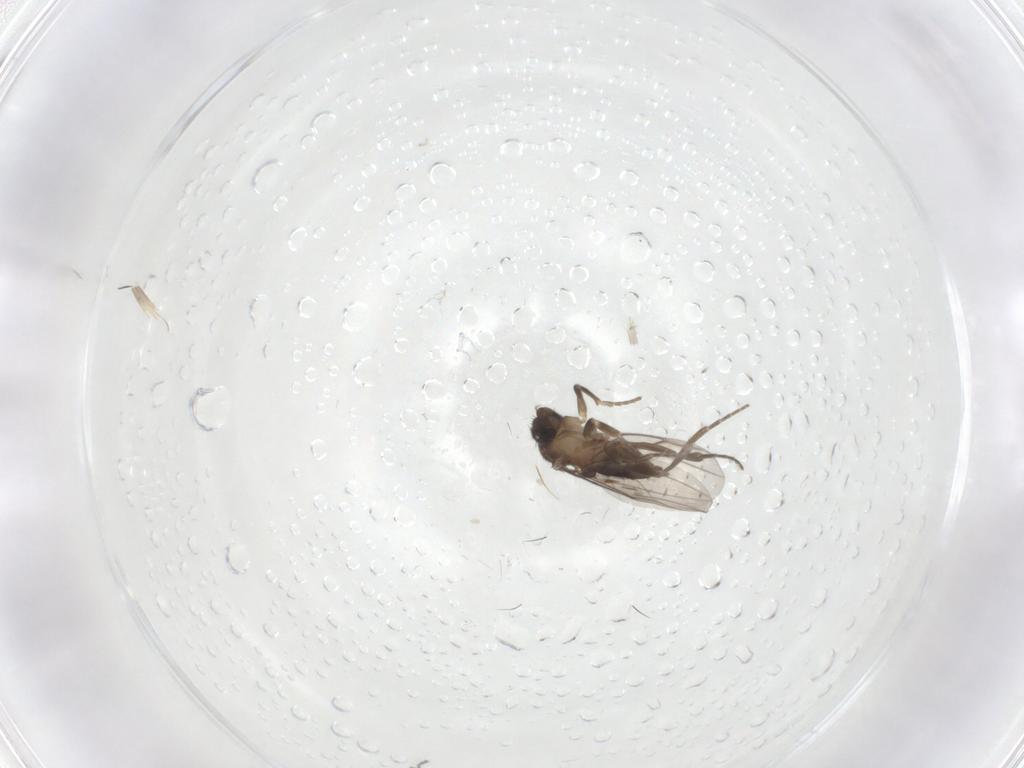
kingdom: Animalia
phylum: Arthropoda
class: Insecta
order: Diptera
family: Phoridae
